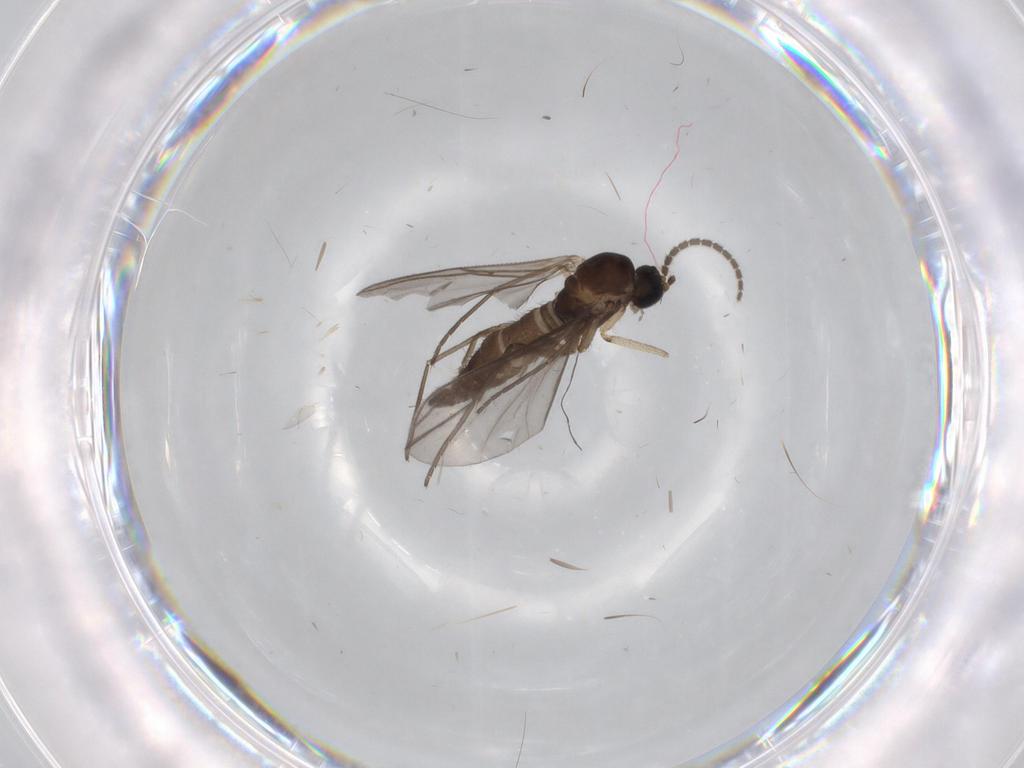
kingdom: Animalia
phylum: Arthropoda
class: Insecta
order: Diptera
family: Sciaridae
